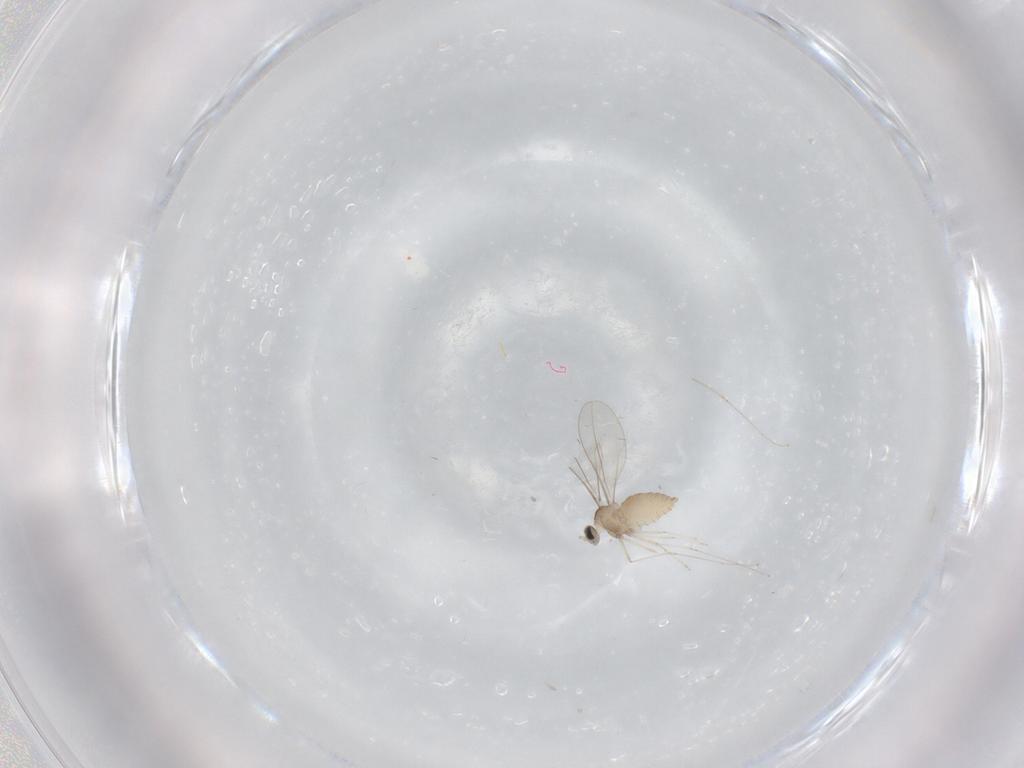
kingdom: Animalia
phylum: Arthropoda
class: Insecta
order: Diptera
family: Cecidomyiidae
